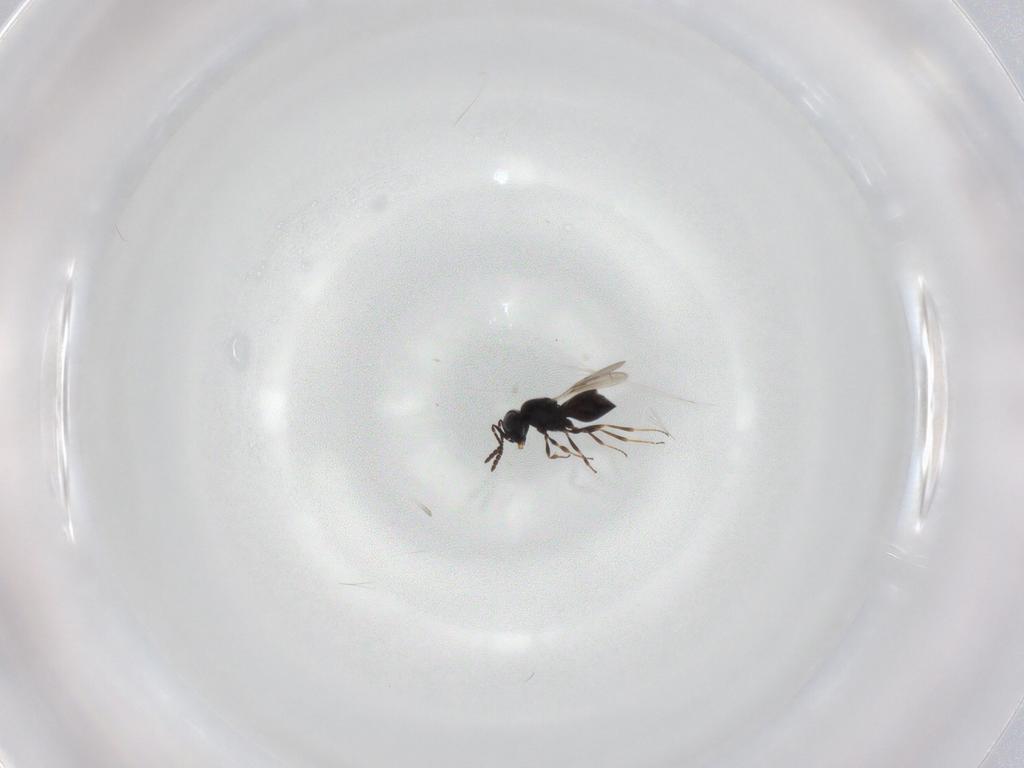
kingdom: Animalia
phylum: Arthropoda
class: Insecta
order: Hymenoptera
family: Scelionidae
